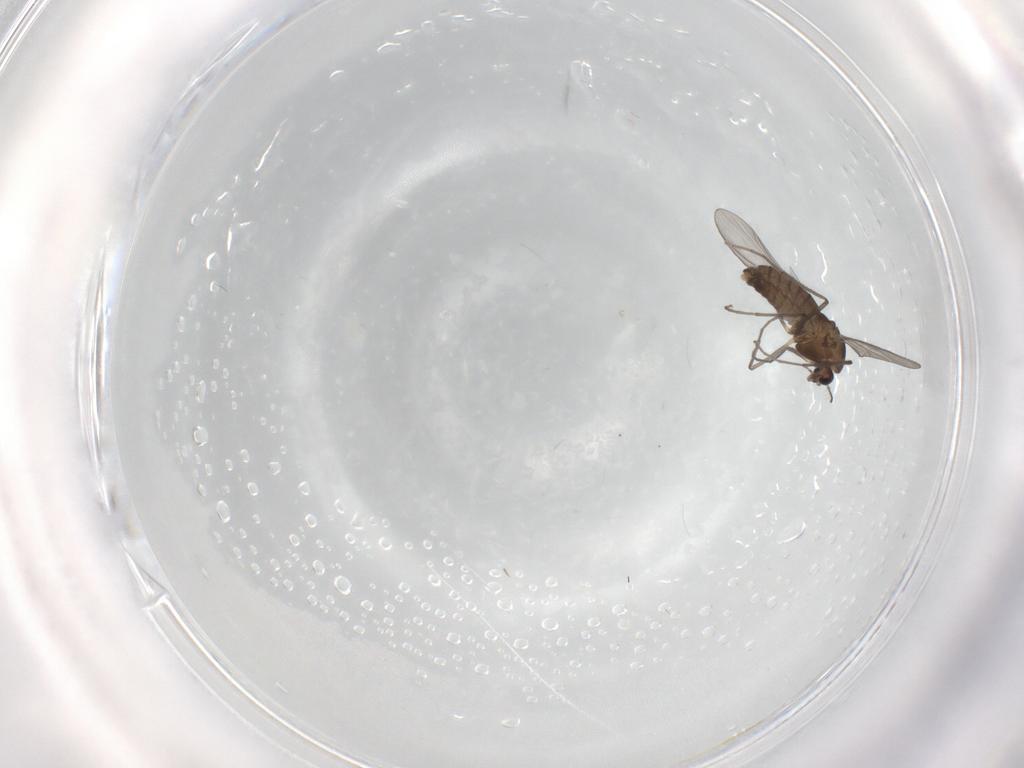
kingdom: Animalia
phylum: Arthropoda
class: Insecta
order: Diptera
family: Chironomidae
